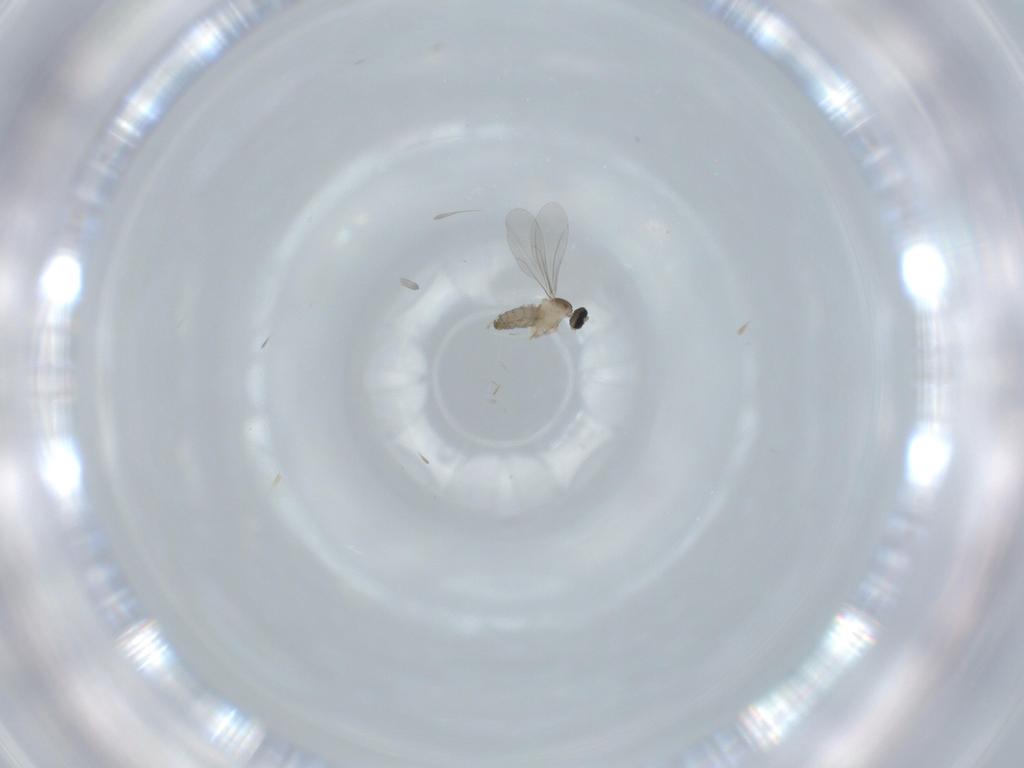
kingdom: Animalia
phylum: Arthropoda
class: Insecta
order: Diptera
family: Cecidomyiidae
